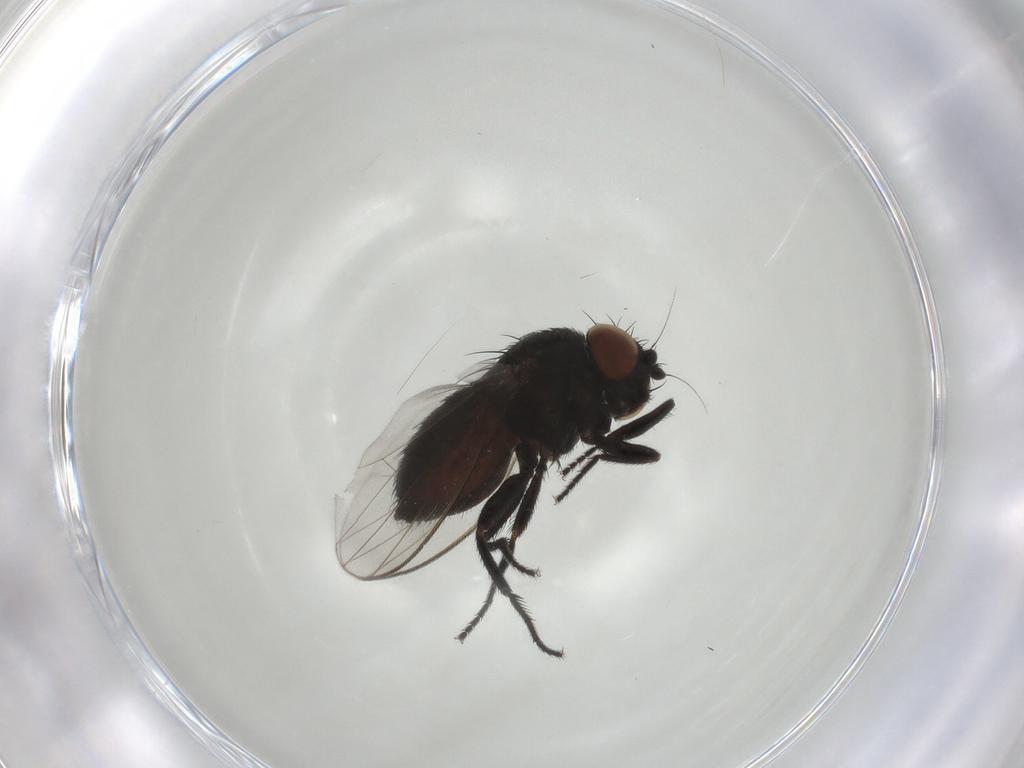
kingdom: Animalia
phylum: Arthropoda
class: Insecta
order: Diptera
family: Milichiidae
